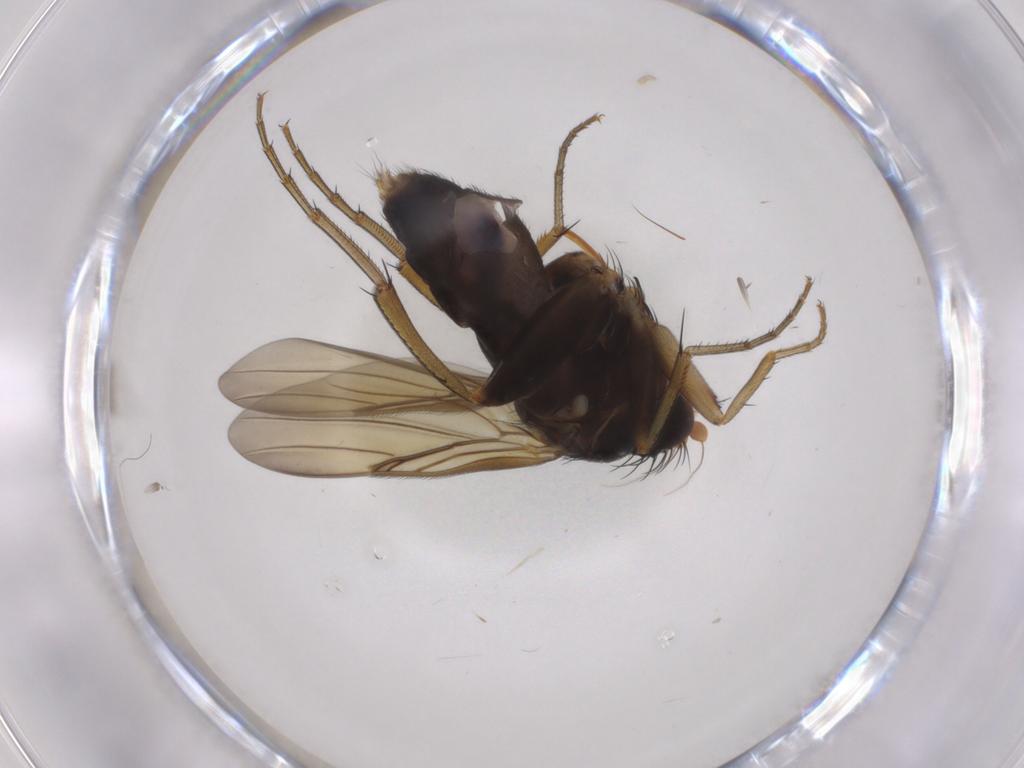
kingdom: Animalia
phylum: Arthropoda
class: Insecta
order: Diptera
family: Phoridae
